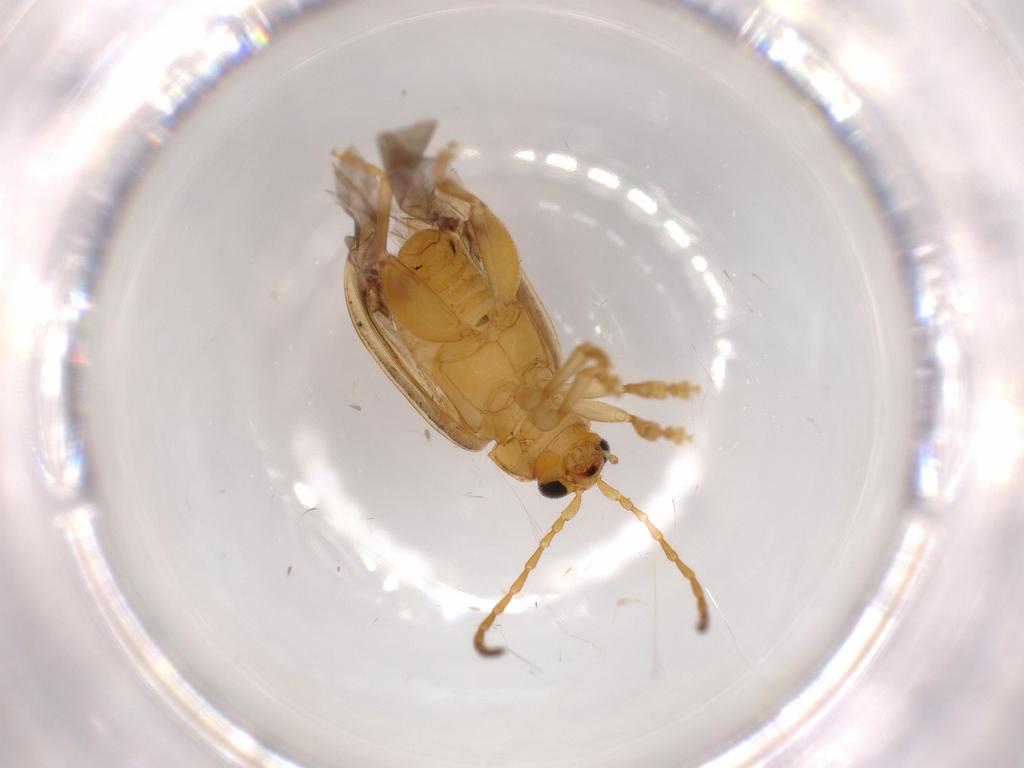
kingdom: Animalia
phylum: Arthropoda
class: Insecta
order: Coleoptera
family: Chrysomelidae
